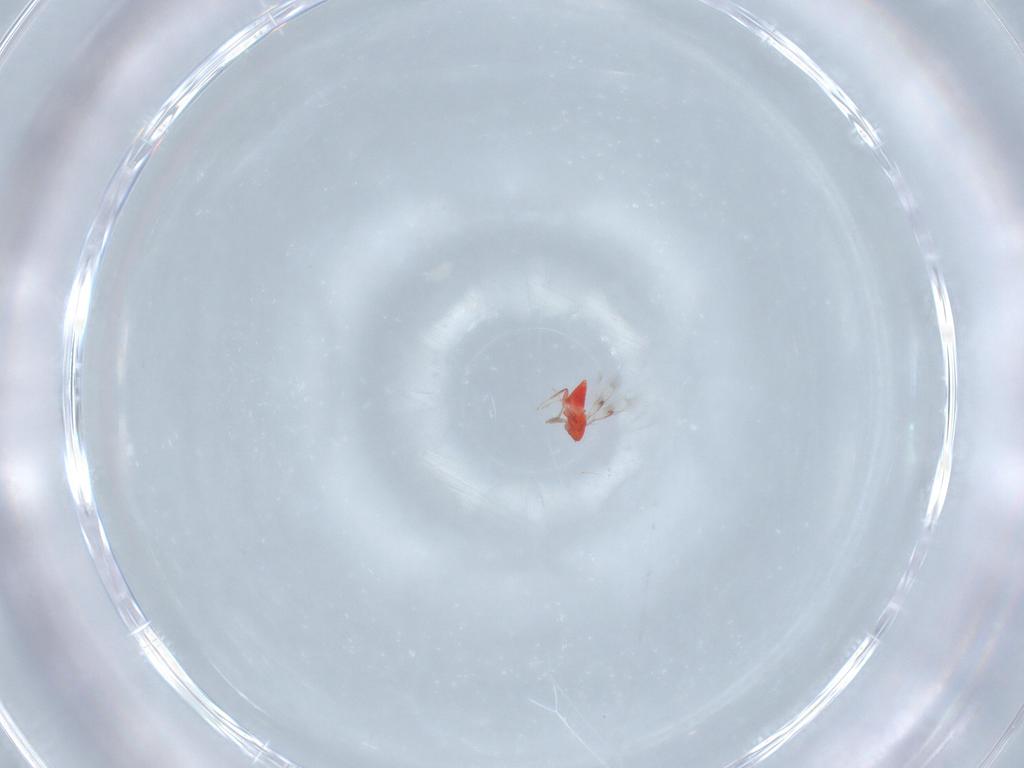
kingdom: Animalia
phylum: Arthropoda
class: Insecta
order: Hymenoptera
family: Trichogrammatidae
